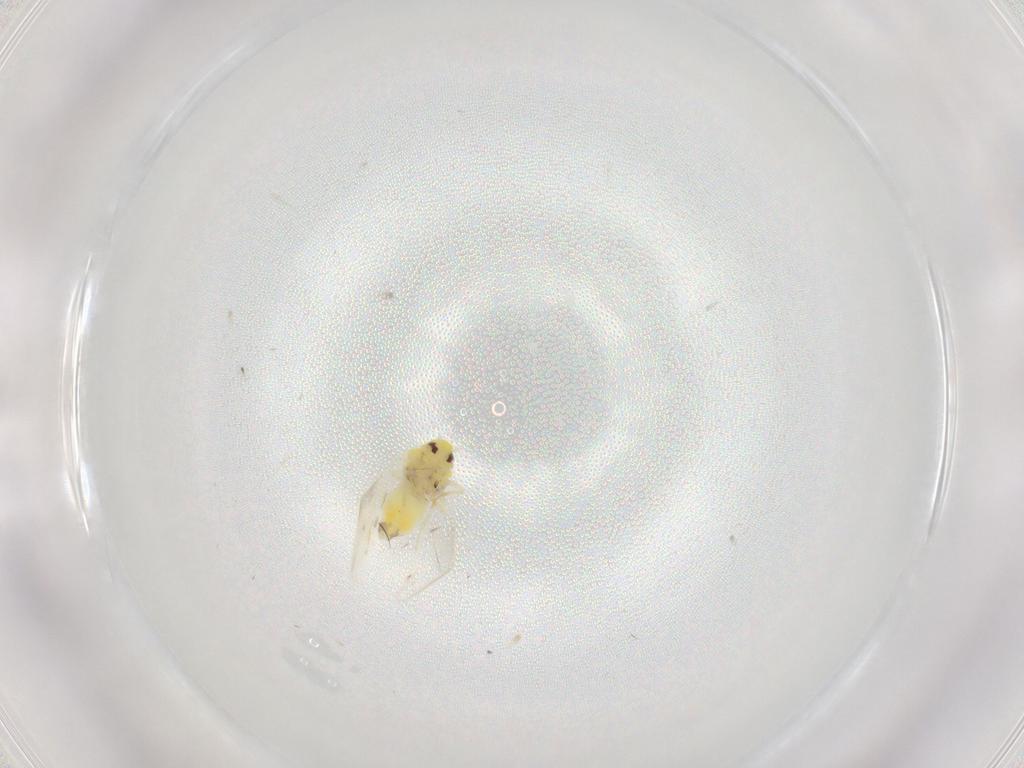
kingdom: Animalia
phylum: Arthropoda
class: Insecta
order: Hemiptera
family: Aleyrodidae
